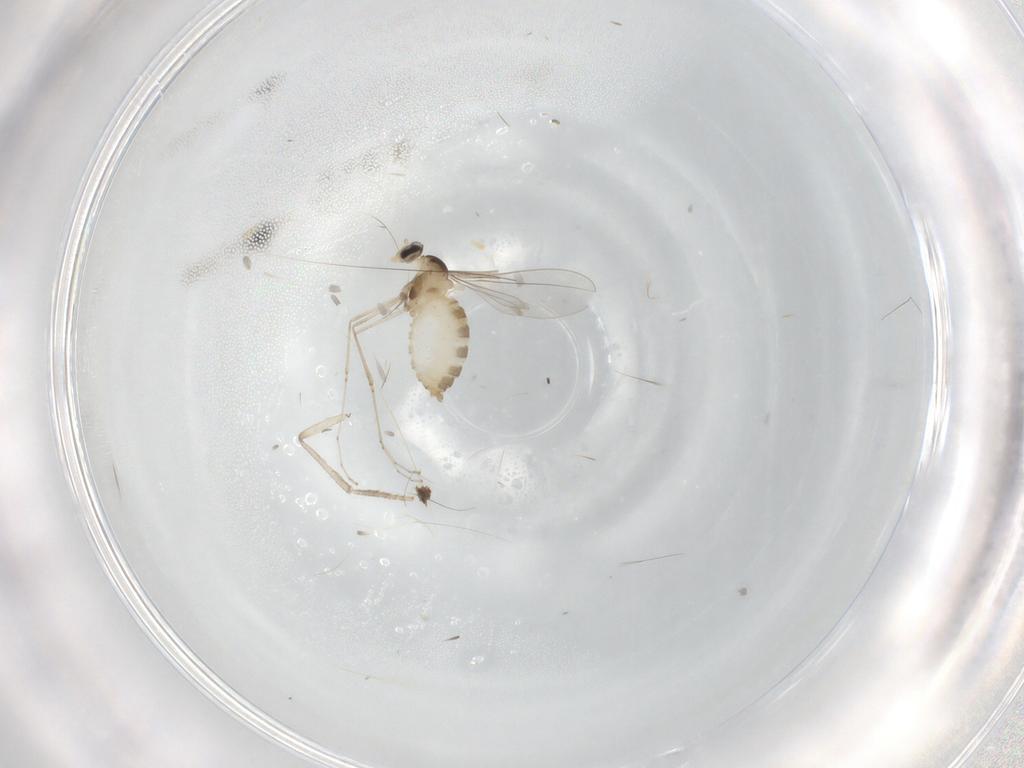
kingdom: Animalia
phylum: Arthropoda
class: Insecta
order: Diptera
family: Cecidomyiidae
